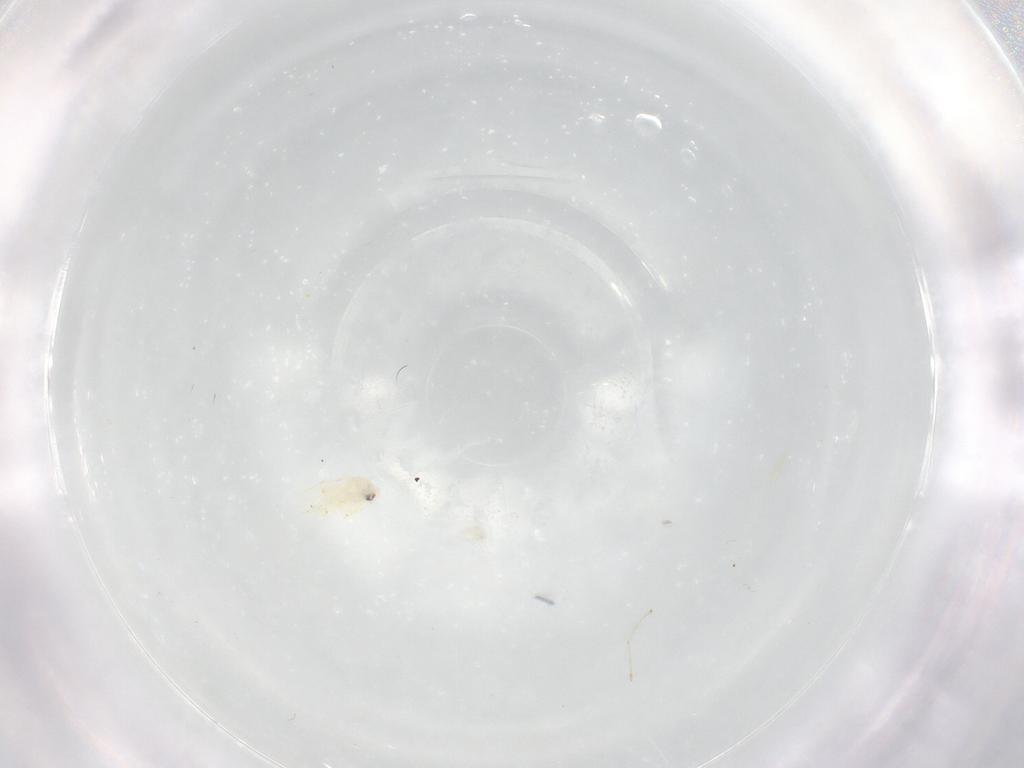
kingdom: Animalia
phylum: Arthropoda
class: Insecta
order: Hemiptera
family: Aleyrodidae
